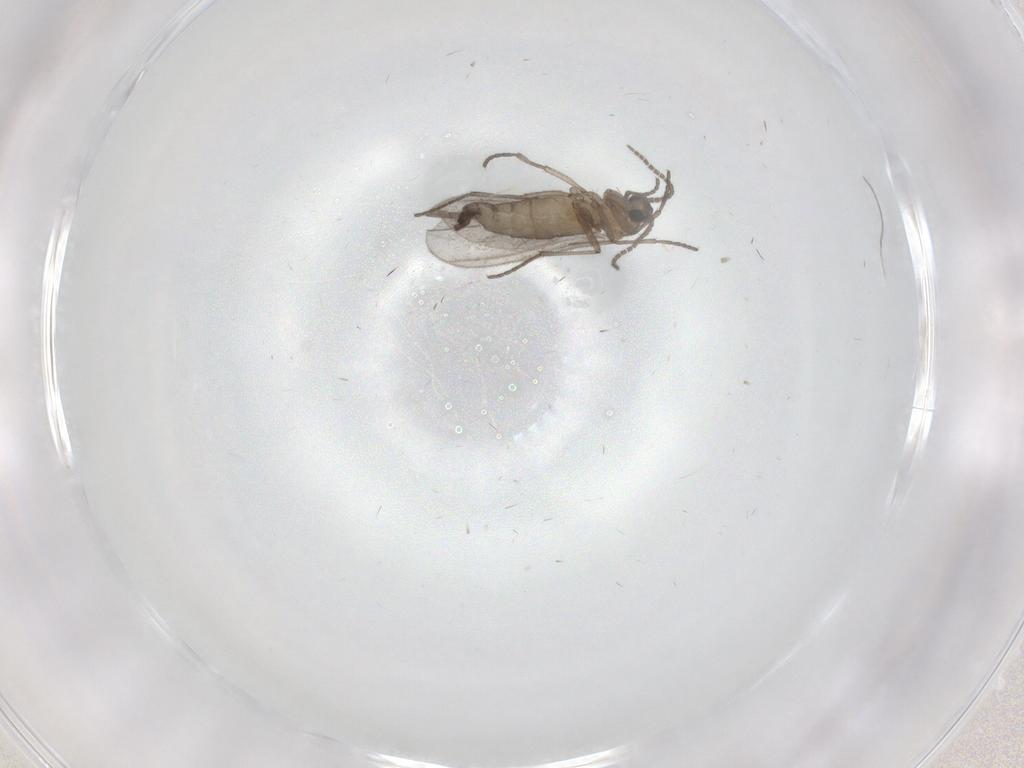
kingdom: Animalia
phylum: Arthropoda
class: Insecta
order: Diptera
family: Sciaridae
